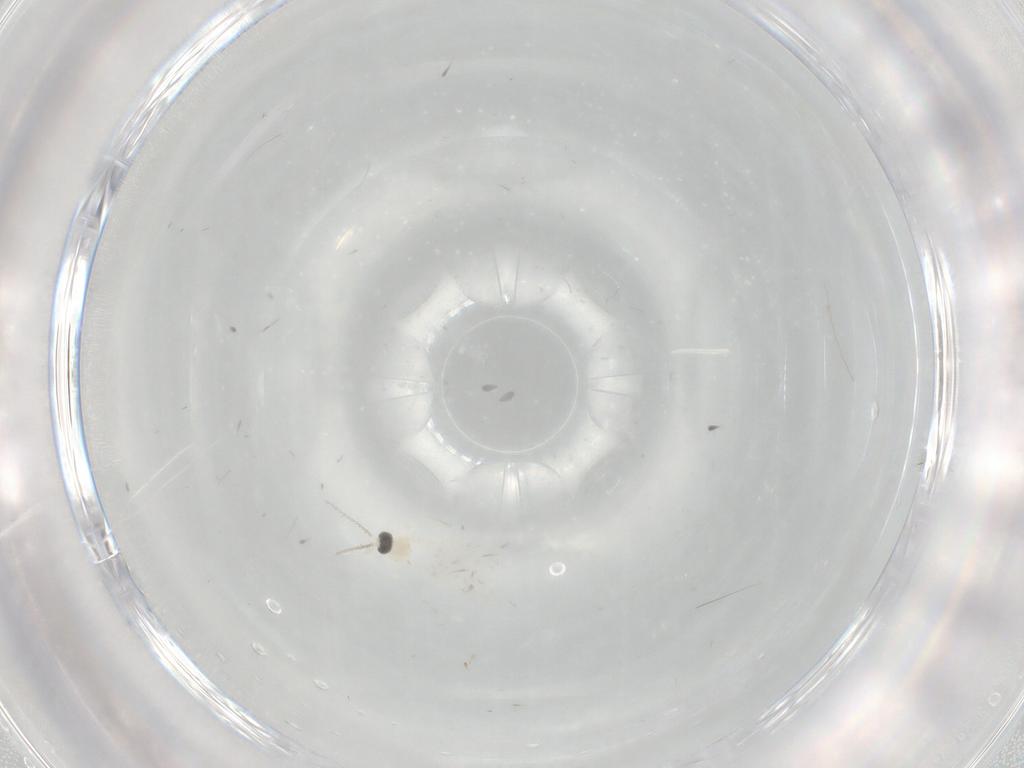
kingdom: Animalia
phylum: Arthropoda
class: Insecta
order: Diptera
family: Cecidomyiidae
